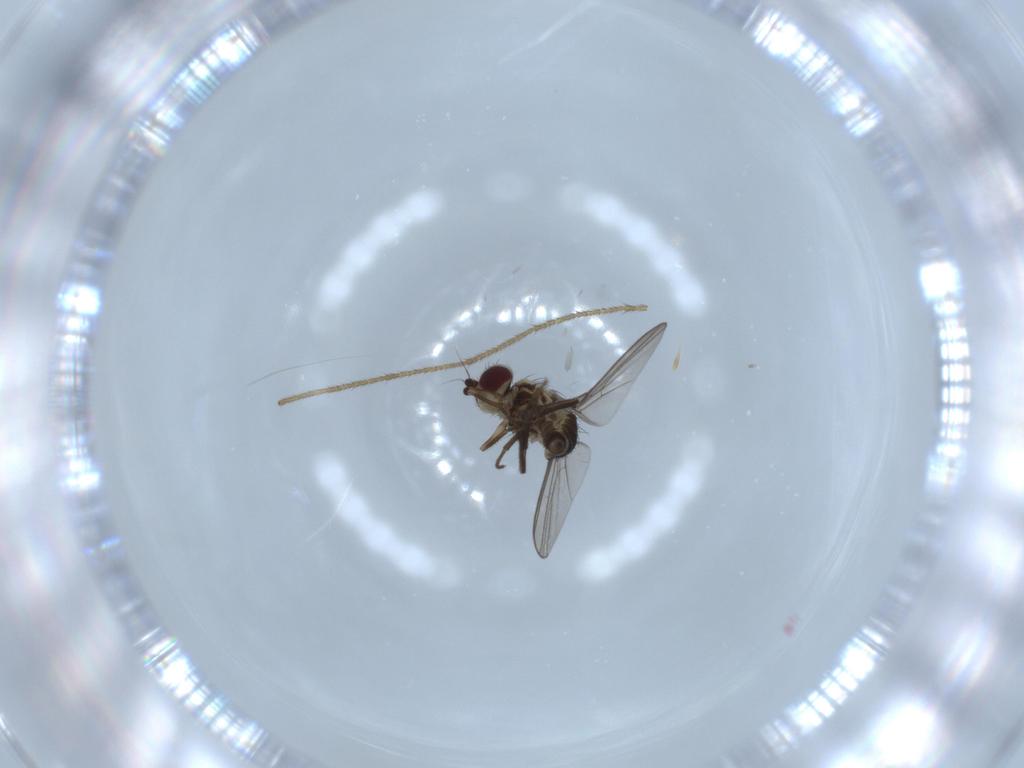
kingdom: Animalia
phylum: Arthropoda
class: Insecta
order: Diptera
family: Agromyzidae
